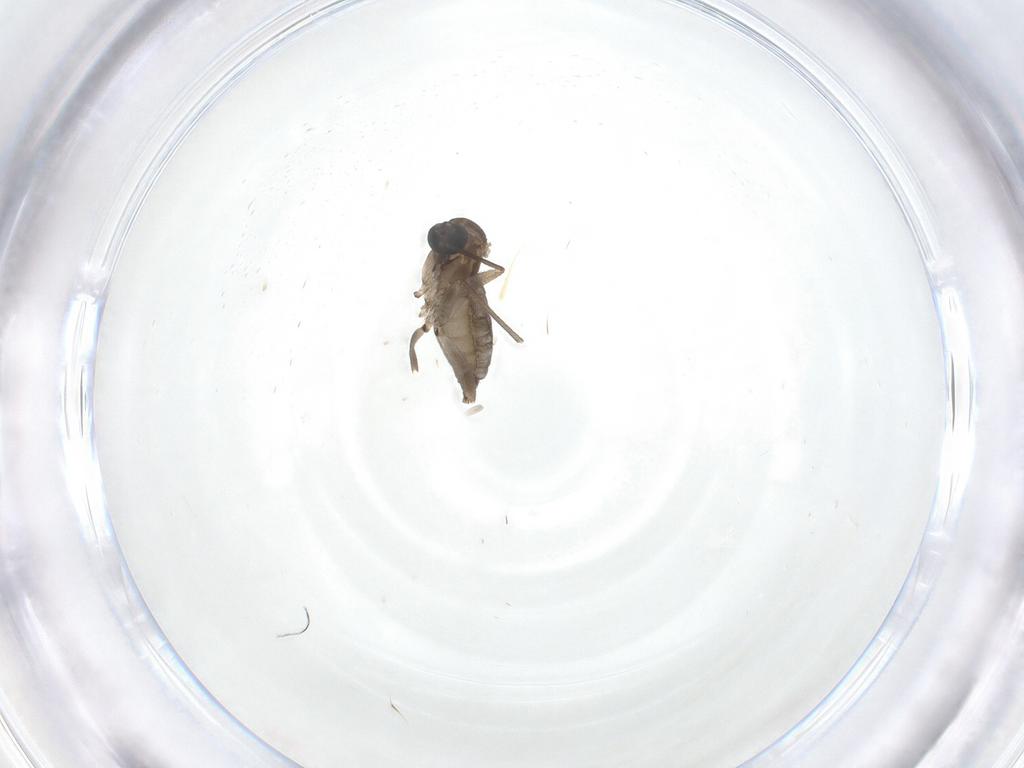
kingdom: Animalia
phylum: Arthropoda
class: Insecta
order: Diptera
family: Sciaridae
